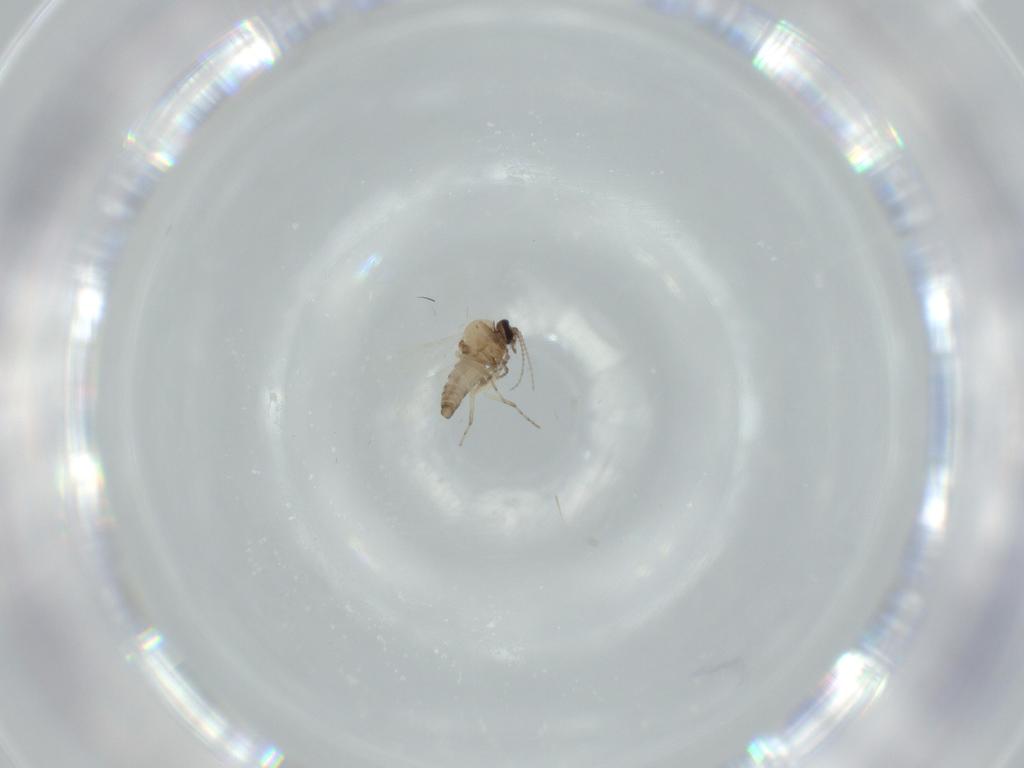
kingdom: Animalia
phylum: Arthropoda
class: Insecta
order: Diptera
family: Ceratopogonidae
